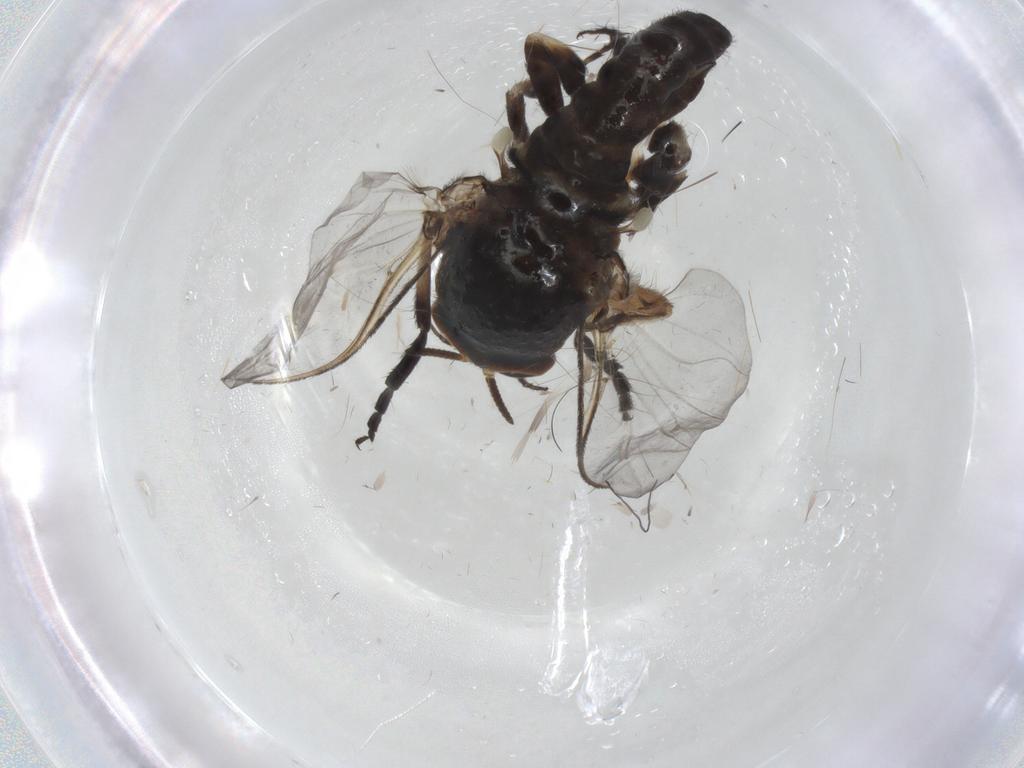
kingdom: Animalia
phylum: Arthropoda
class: Insecta
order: Diptera
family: Simuliidae
